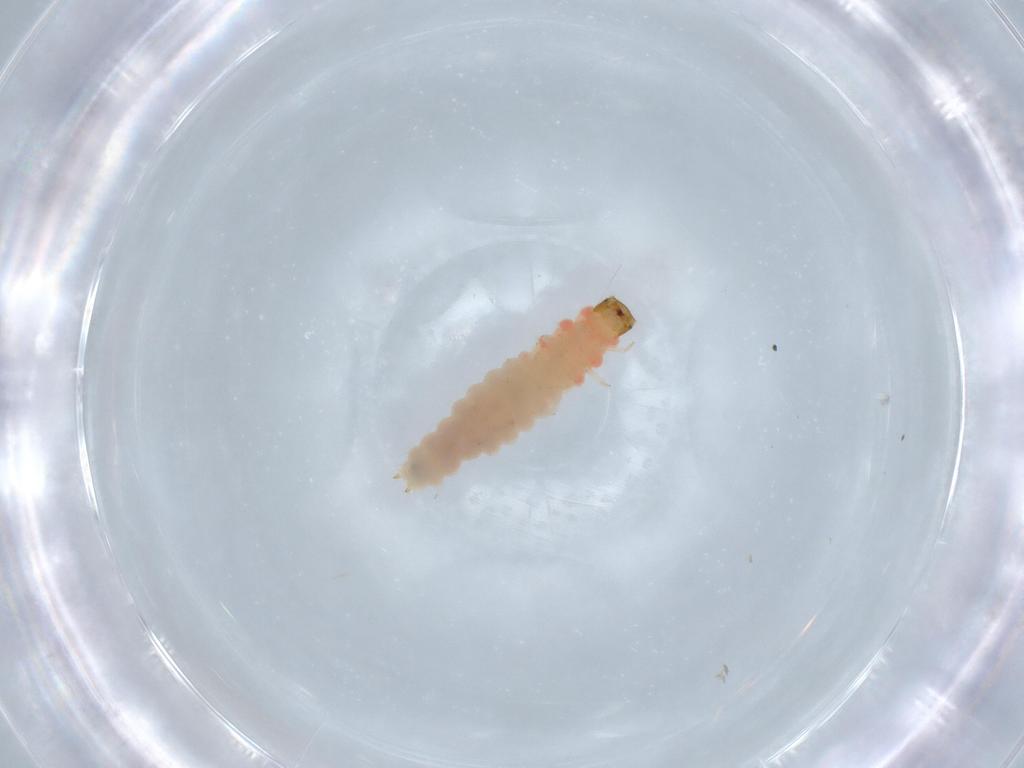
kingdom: Animalia
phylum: Arthropoda
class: Insecta
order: Coleoptera
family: Melyridae
